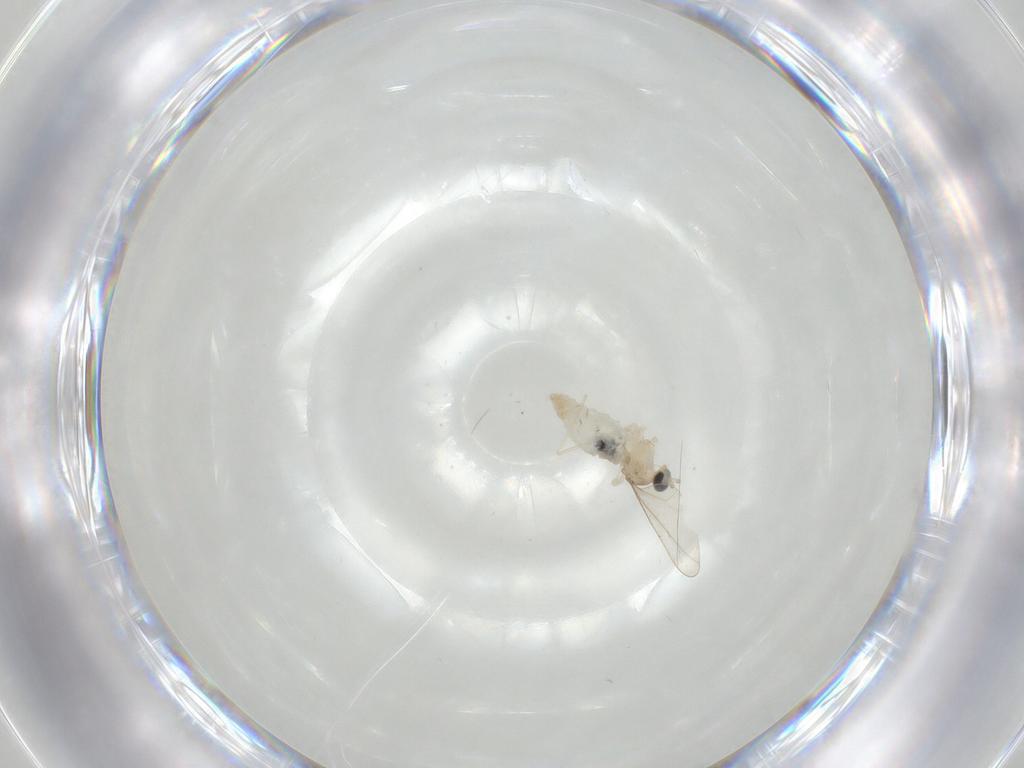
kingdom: Animalia
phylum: Arthropoda
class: Insecta
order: Diptera
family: Cecidomyiidae
